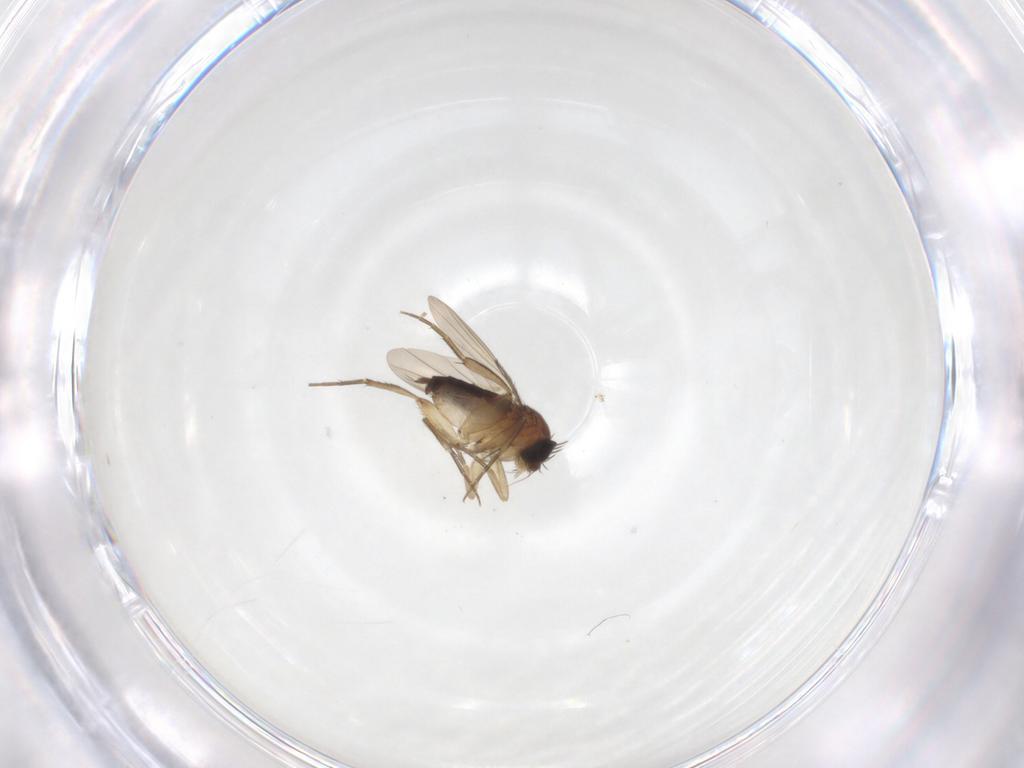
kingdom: Animalia
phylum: Arthropoda
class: Insecta
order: Diptera
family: Phoridae
